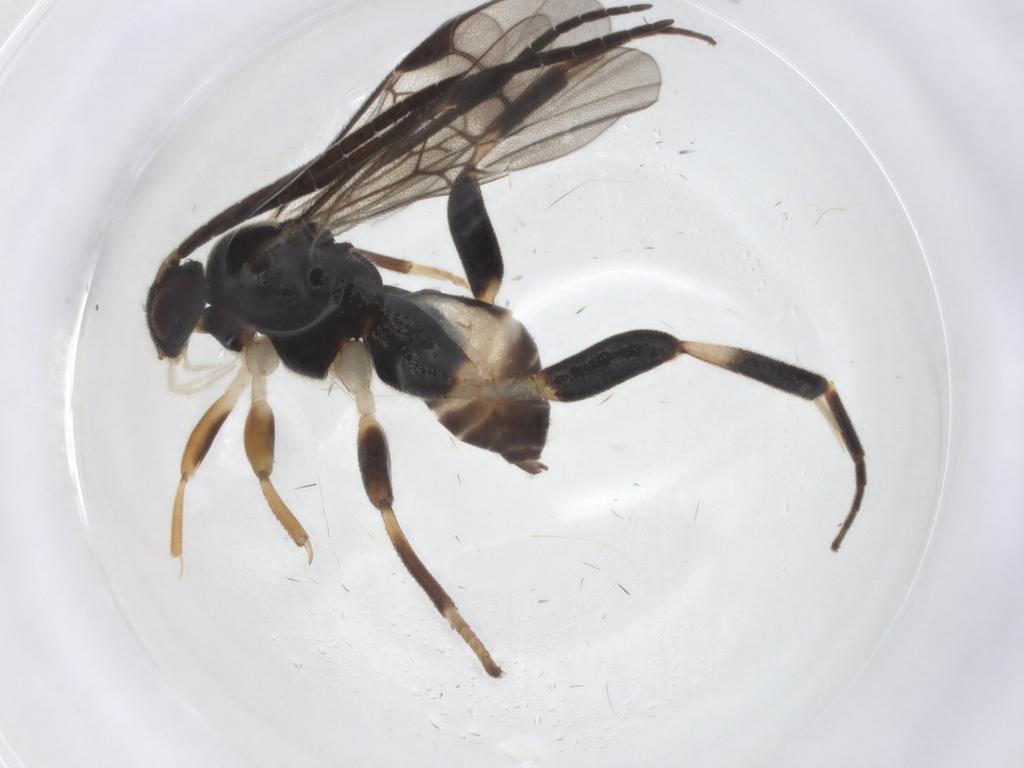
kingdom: Animalia
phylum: Arthropoda
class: Insecta
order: Hymenoptera
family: Braconidae
